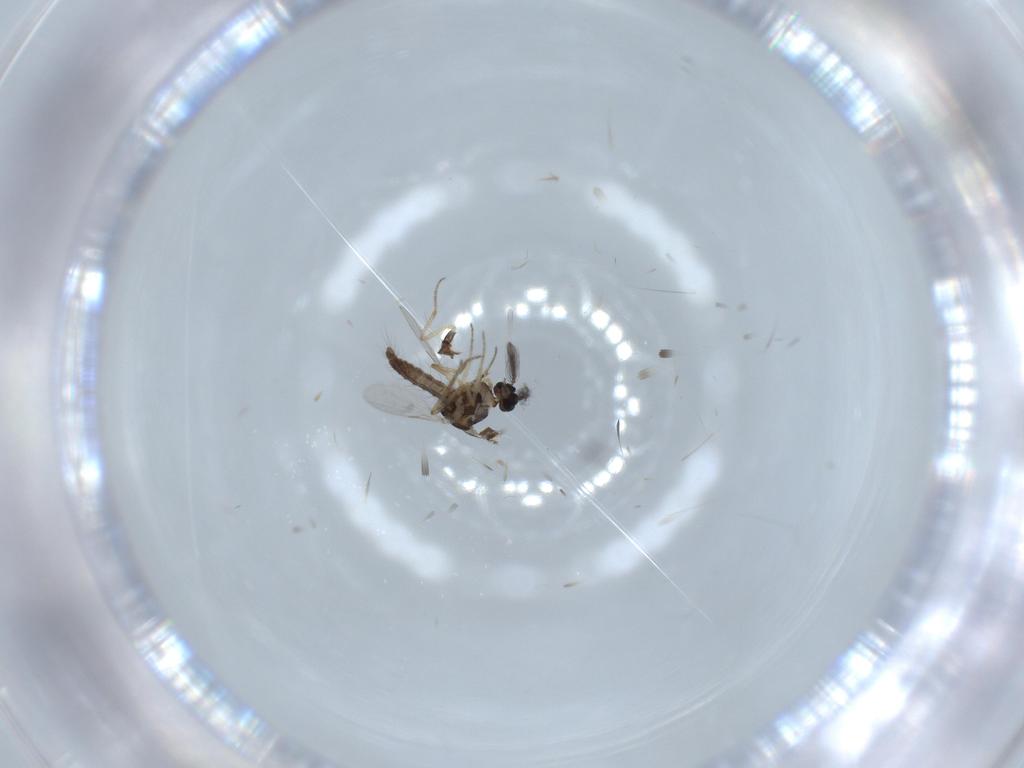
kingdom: Animalia
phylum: Arthropoda
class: Insecta
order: Diptera
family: Ceratopogonidae
